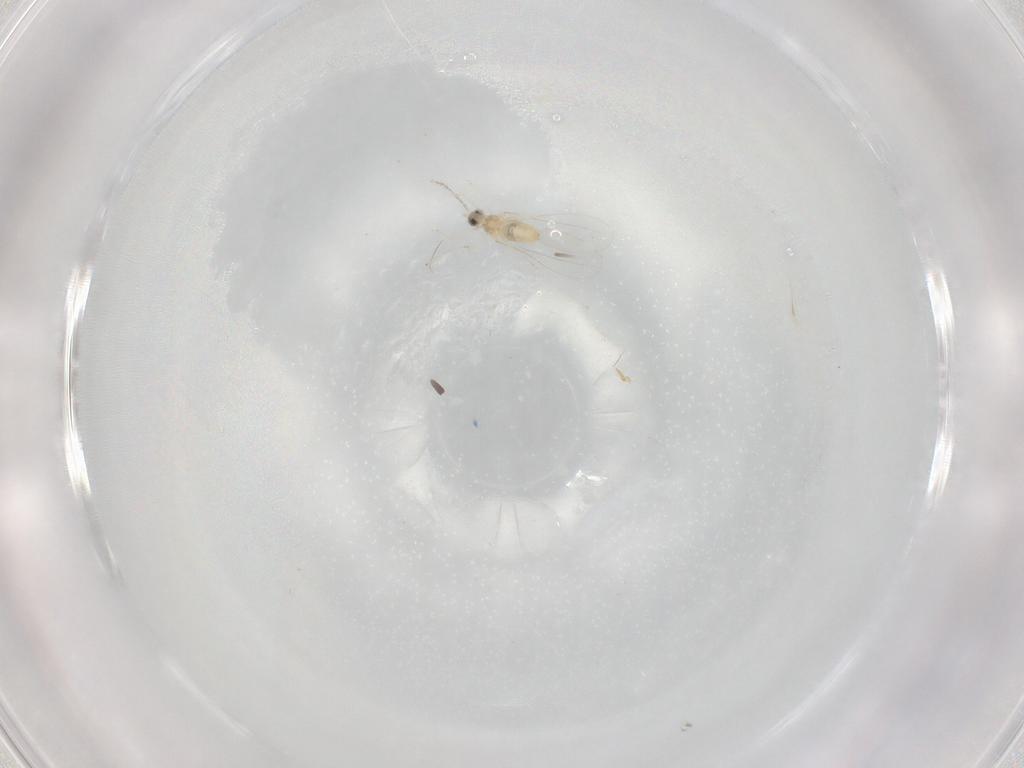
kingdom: Animalia
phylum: Arthropoda
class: Insecta
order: Diptera
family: Cecidomyiidae
